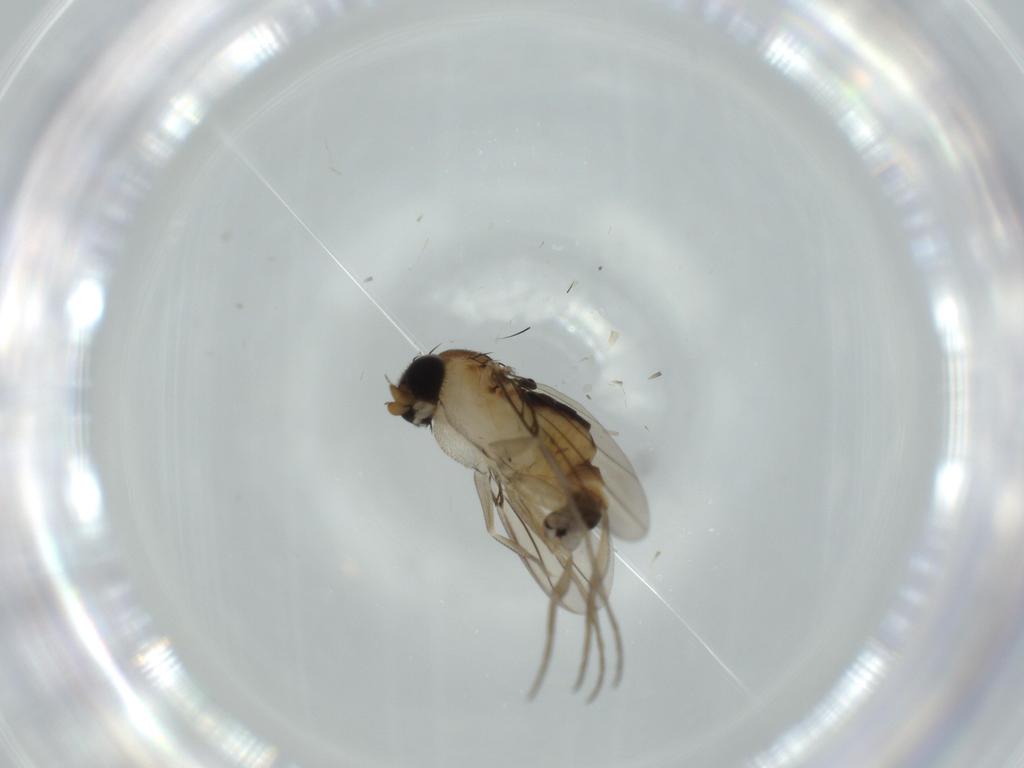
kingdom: Animalia
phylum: Arthropoda
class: Insecta
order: Diptera
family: Phoridae
